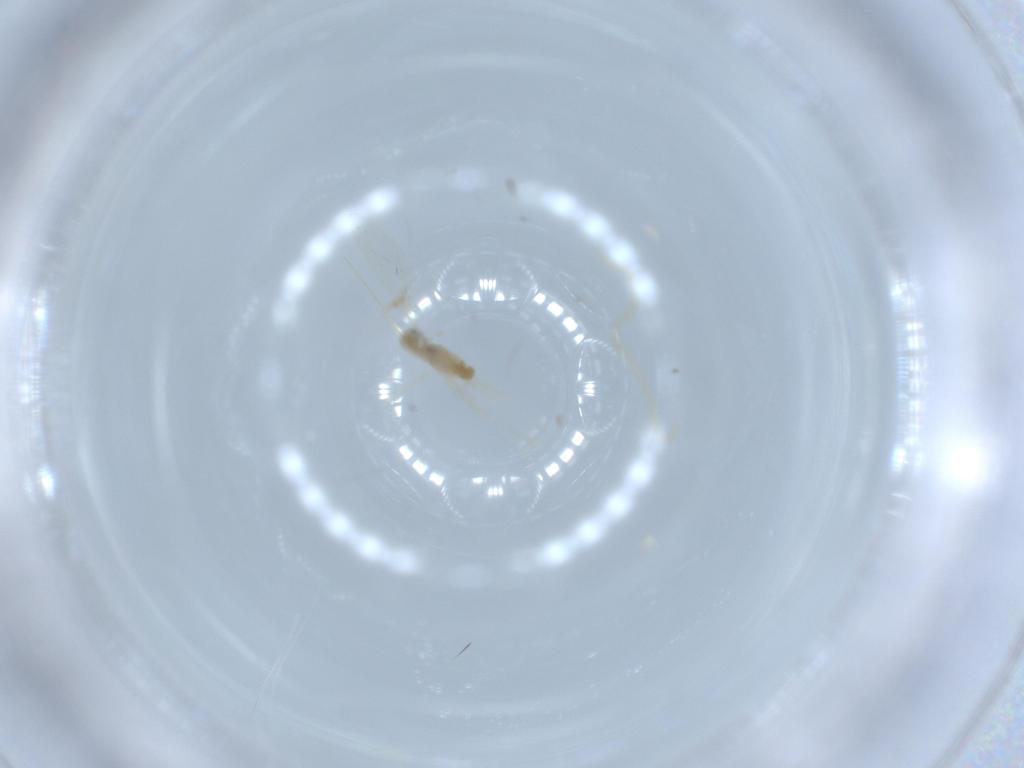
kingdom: Animalia
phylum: Arthropoda
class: Insecta
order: Diptera
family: Cecidomyiidae
